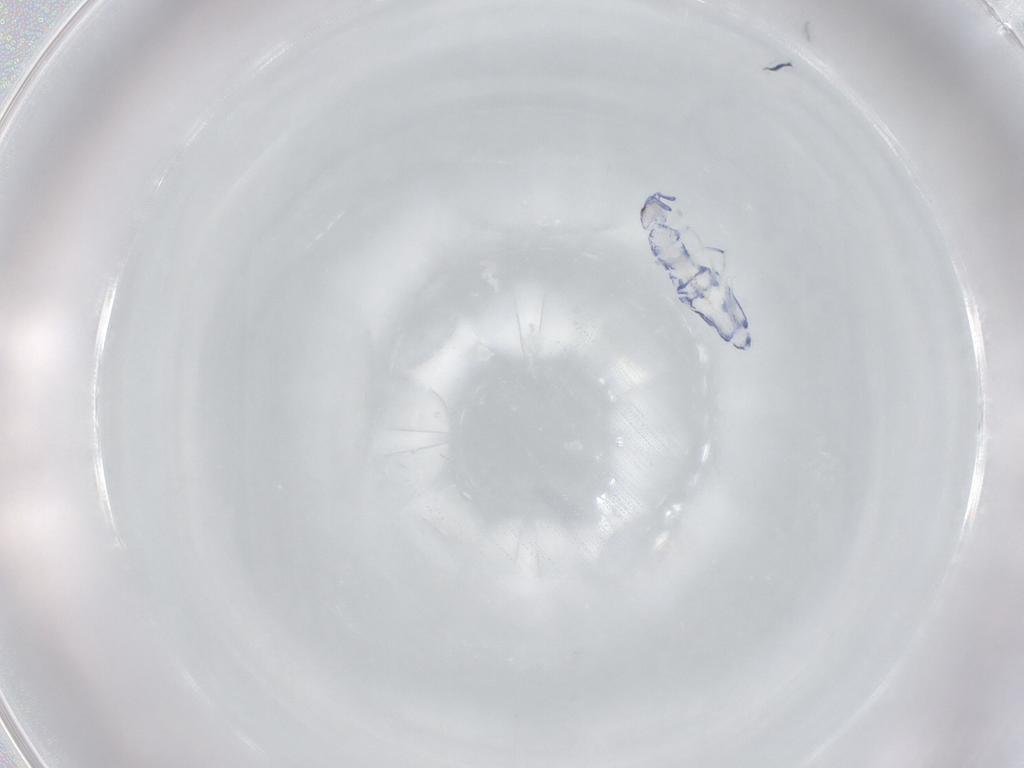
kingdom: Animalia
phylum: Arthropoda
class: Collembola
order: Entomobryomorpha
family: Entomobryidae
